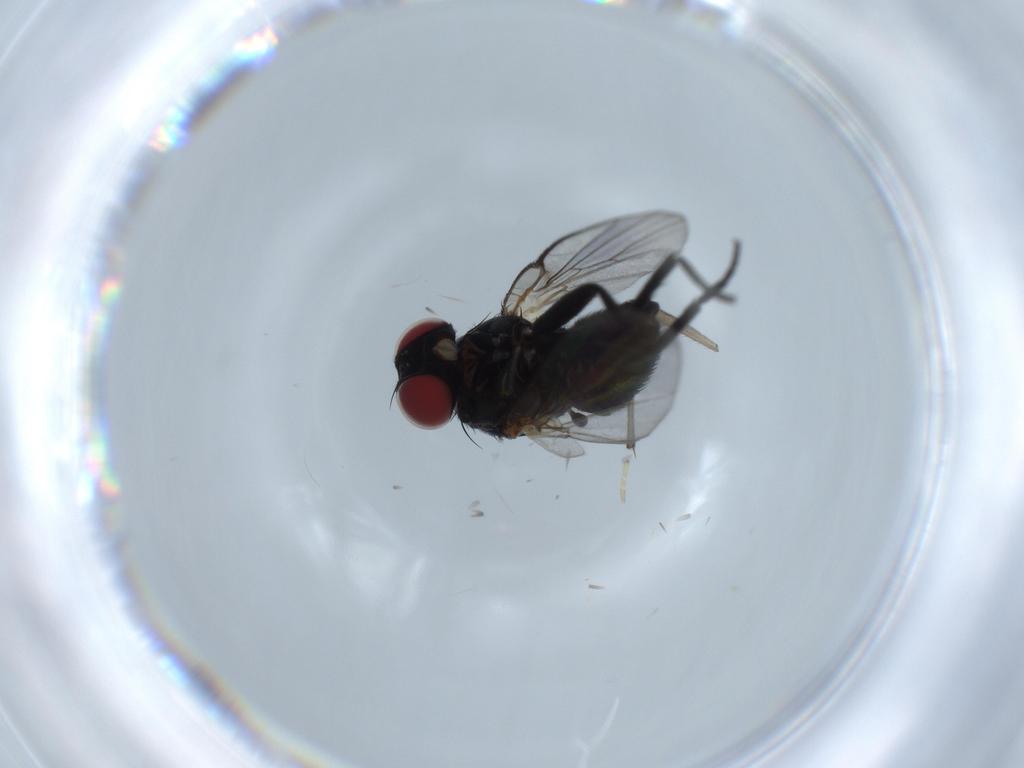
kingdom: Animalia
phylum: Arthropoda
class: Insecta
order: Diptera
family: Agromyzidae
